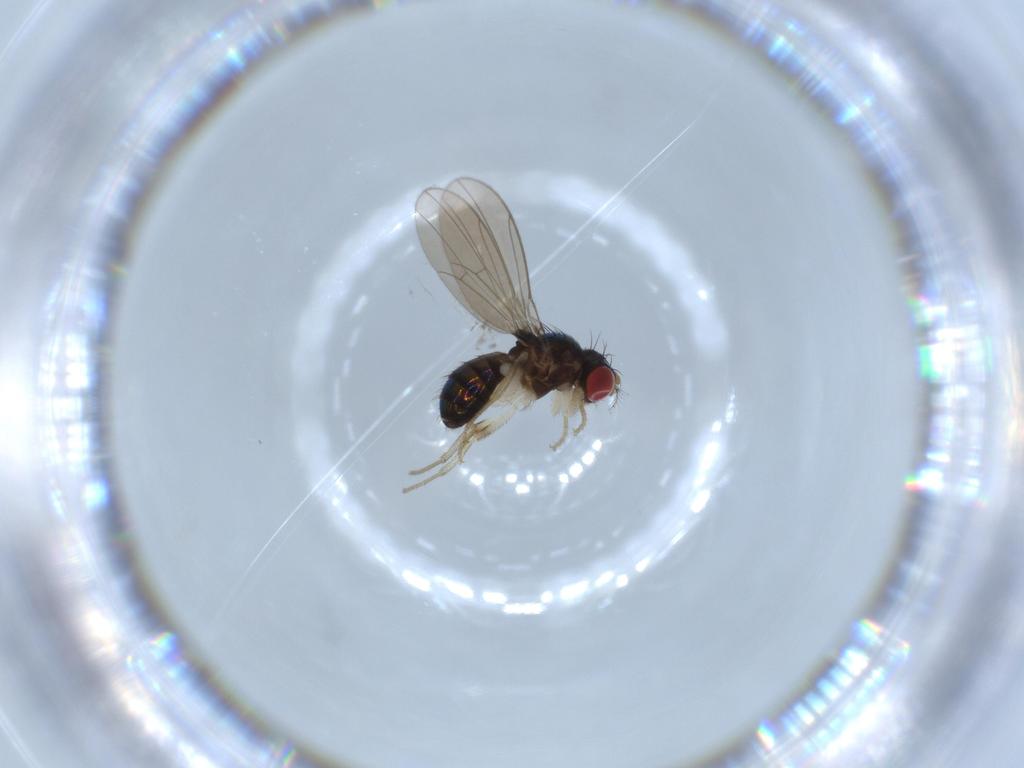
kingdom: Animalia
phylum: Arthropoda
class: Insecta
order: Diptera
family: Drosophilidae
